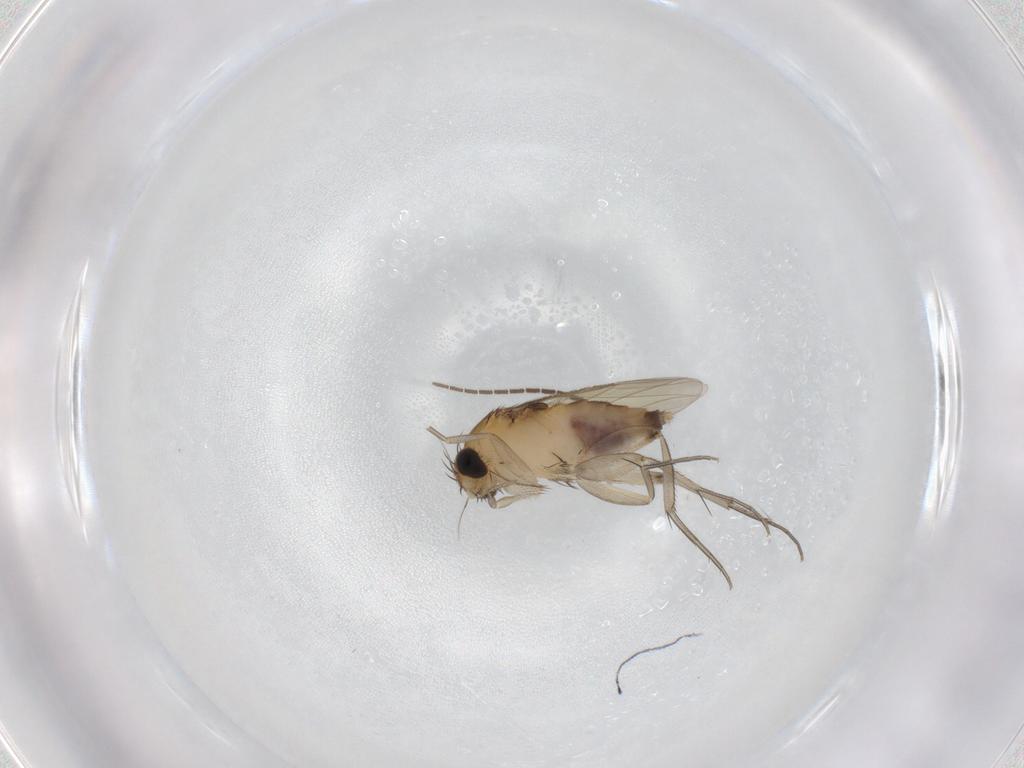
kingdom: Animalia
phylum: Arthropoda
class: Insecta
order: Diptera
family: Phoridae
